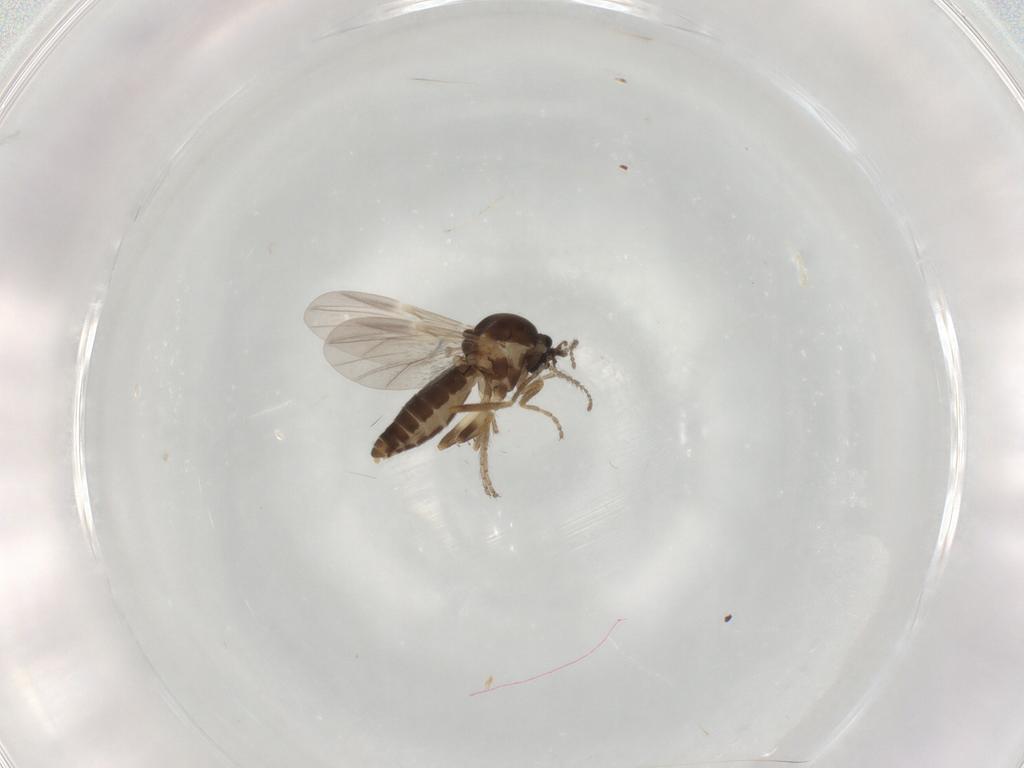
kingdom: Animalia
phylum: Arthropoda
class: Insecta
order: Diptera
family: Ceratopogonidae
